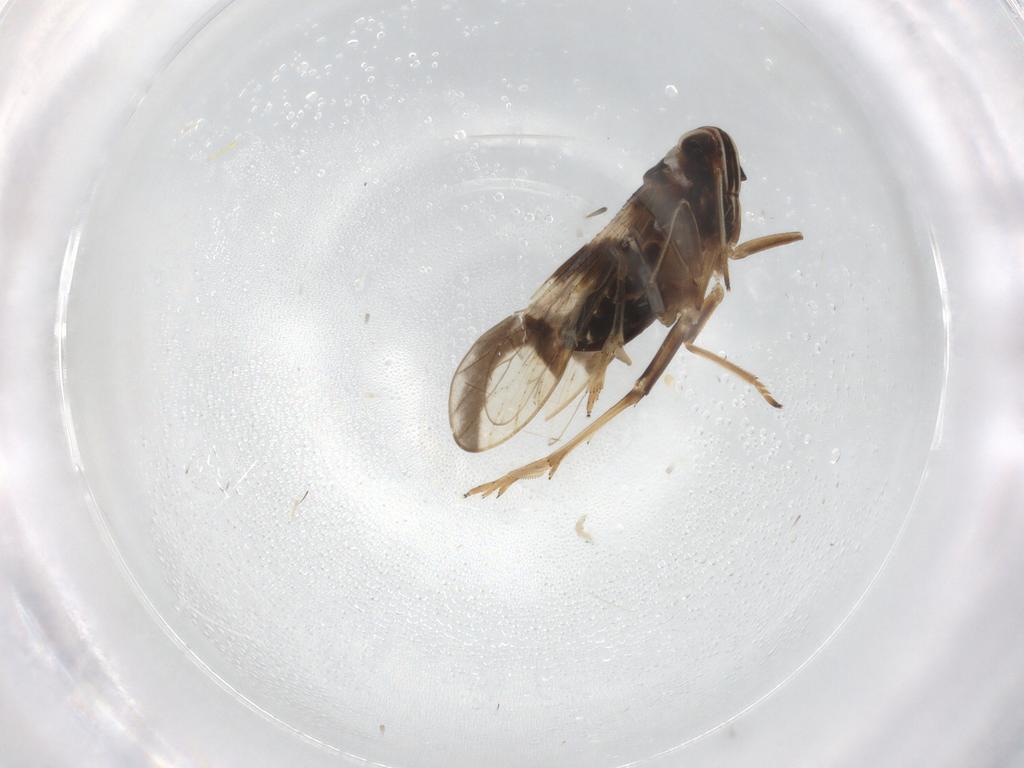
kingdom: Animalia
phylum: Arthropoda
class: Insecta
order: Hemiptera
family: Delphacidae
